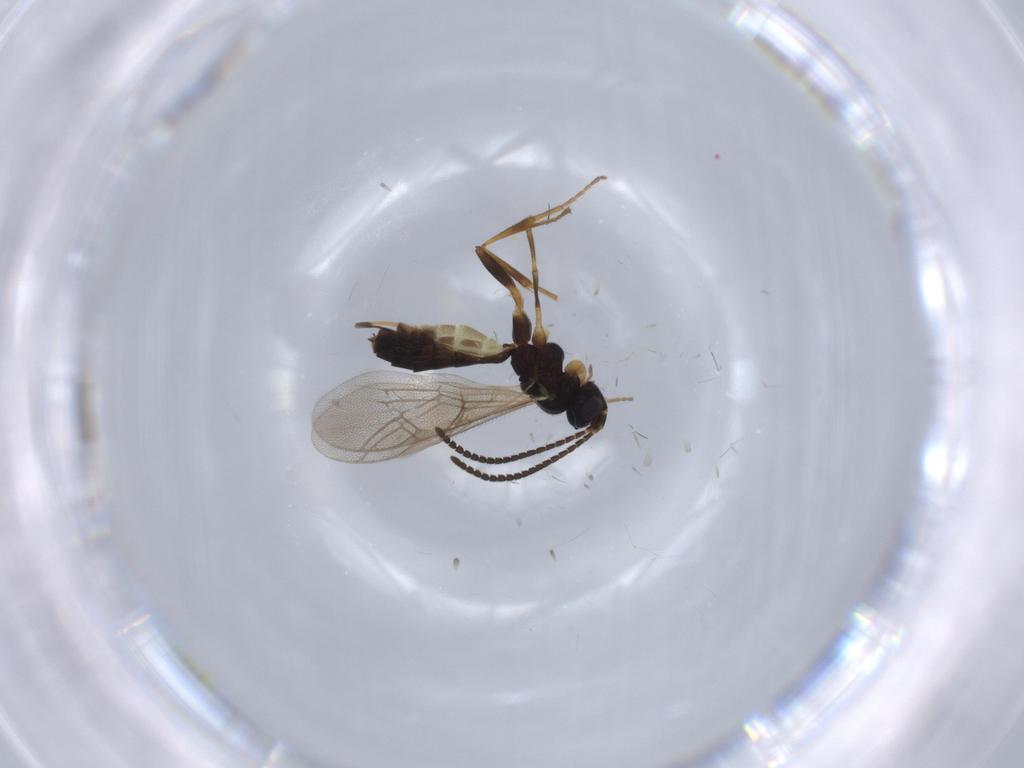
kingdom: Animalia
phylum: Arthropoda
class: Insecta
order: Hymenoptera
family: Ichneumonidae
